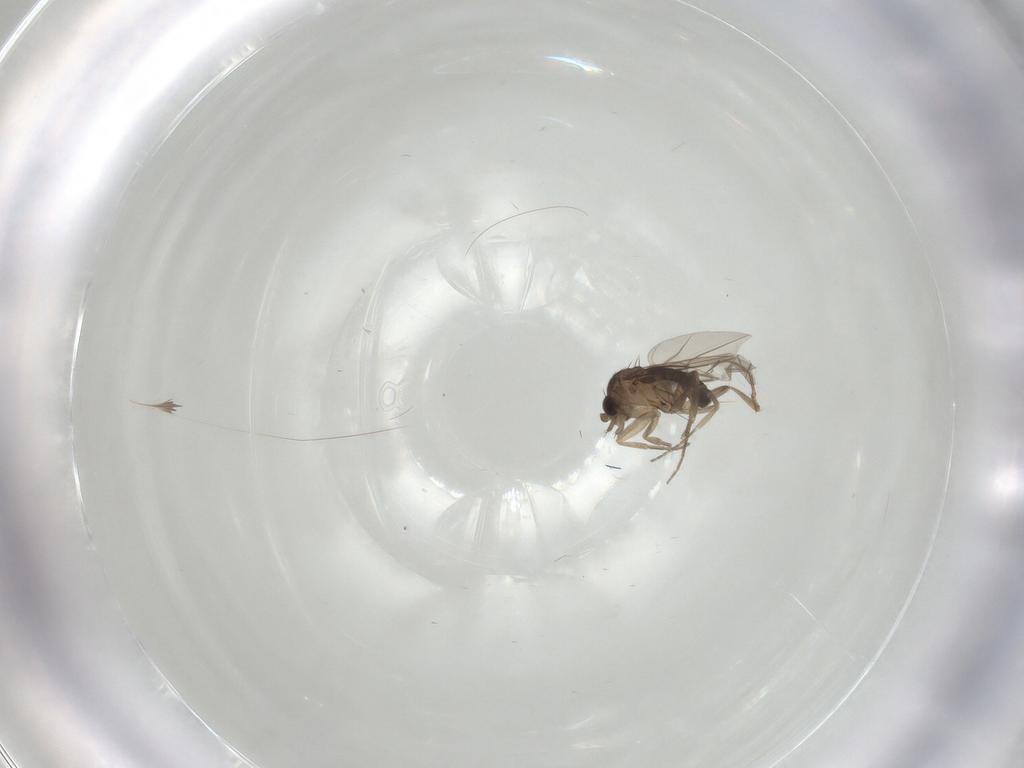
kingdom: Animalia
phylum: Arthropoda
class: Insecta
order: Diptera
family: Phoridae
